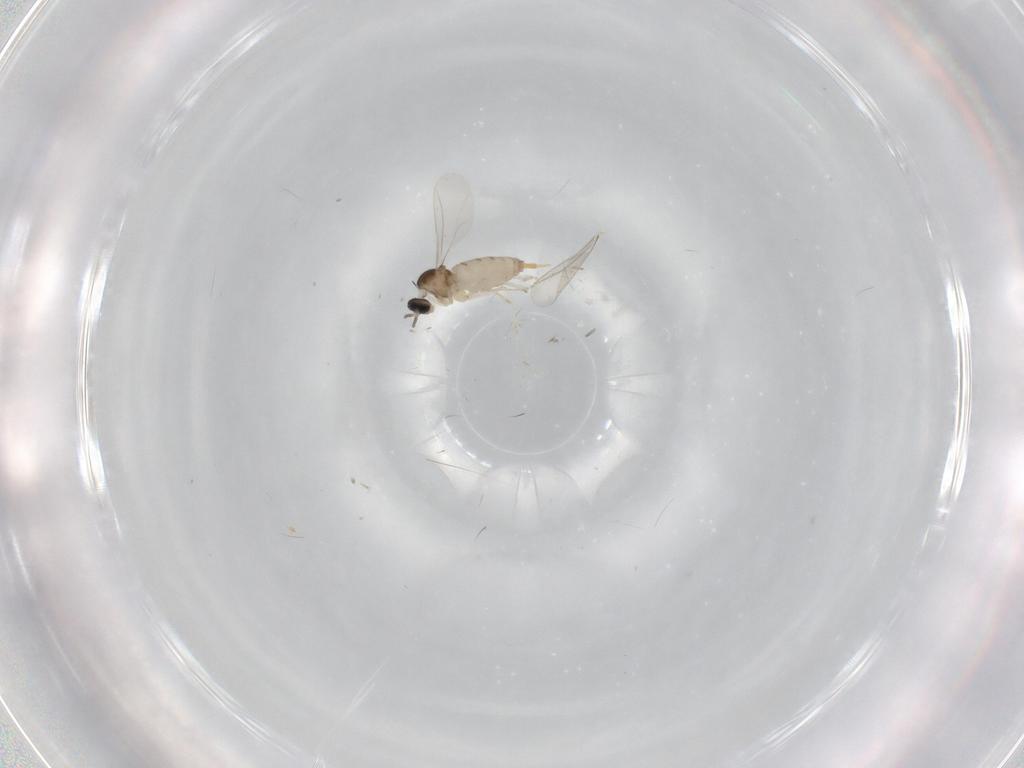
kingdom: Animalia
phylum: Arthropoda
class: Insecta
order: Diptera
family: Cecidomyiidae
